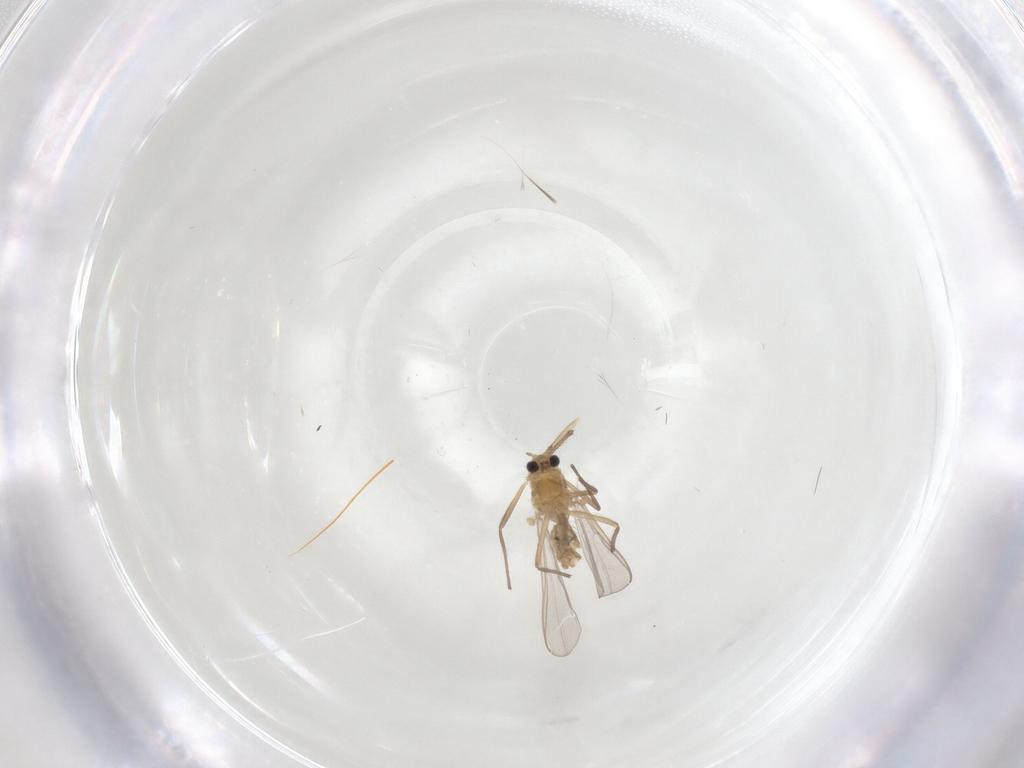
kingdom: Animalia
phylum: Arthropoda
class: Insecta
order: Diptera
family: Chironomidae
